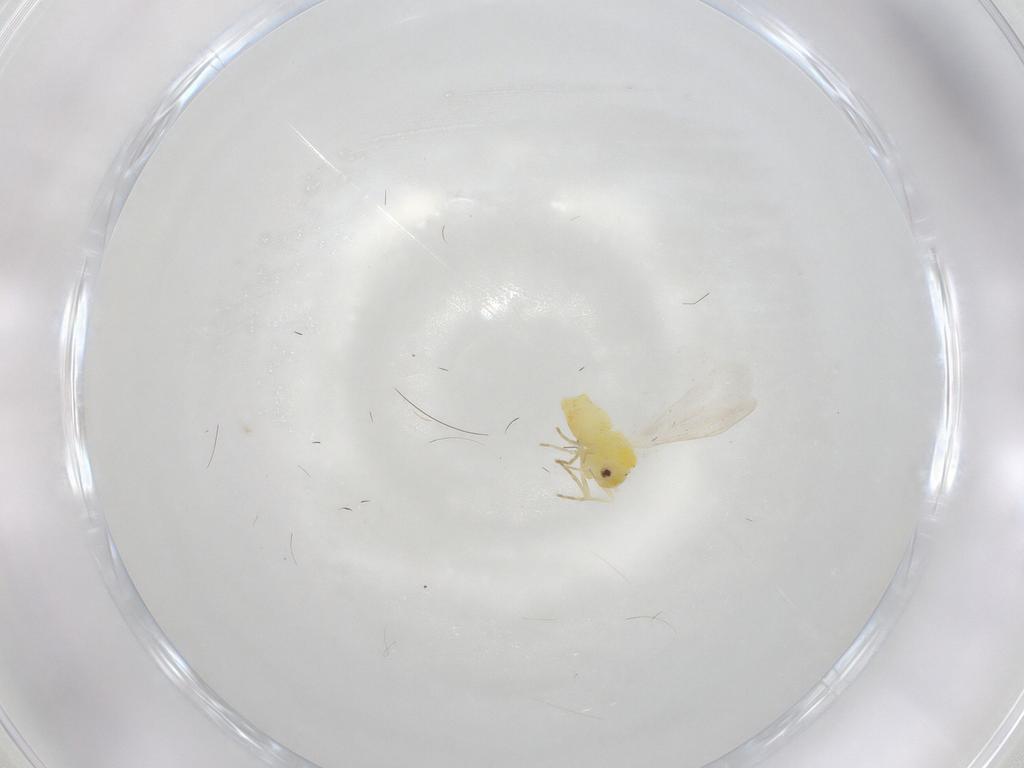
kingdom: Animalia
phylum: Arthropoda
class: Insecta
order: Hemiptera
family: Aleyrodidae
